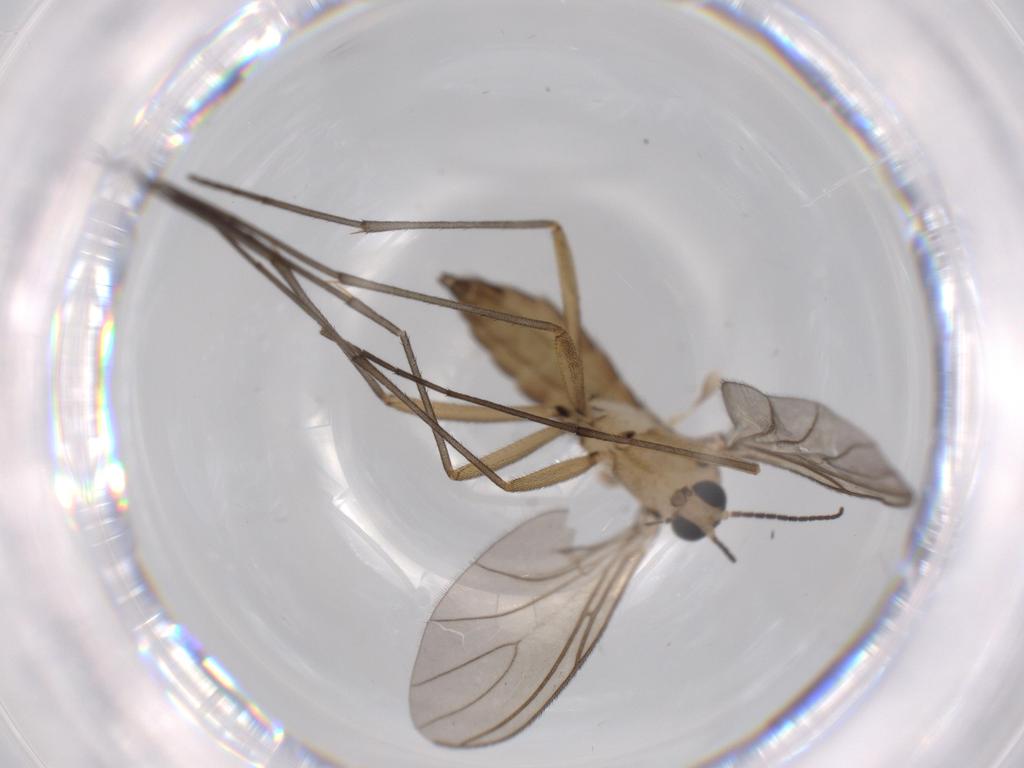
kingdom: Animalia
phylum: Arthropoda
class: Insecta
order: Diptera
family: Sciaridae
